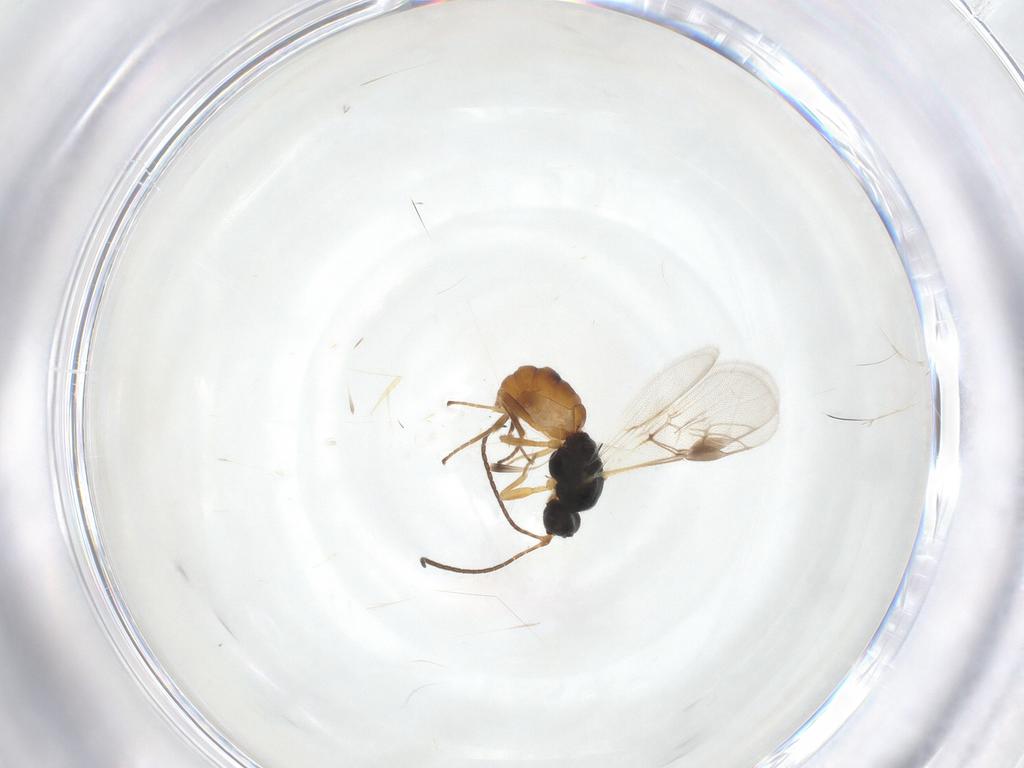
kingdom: Animalia
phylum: Arthropoda
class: Insecta
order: Hymenoptera
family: Braconidae
